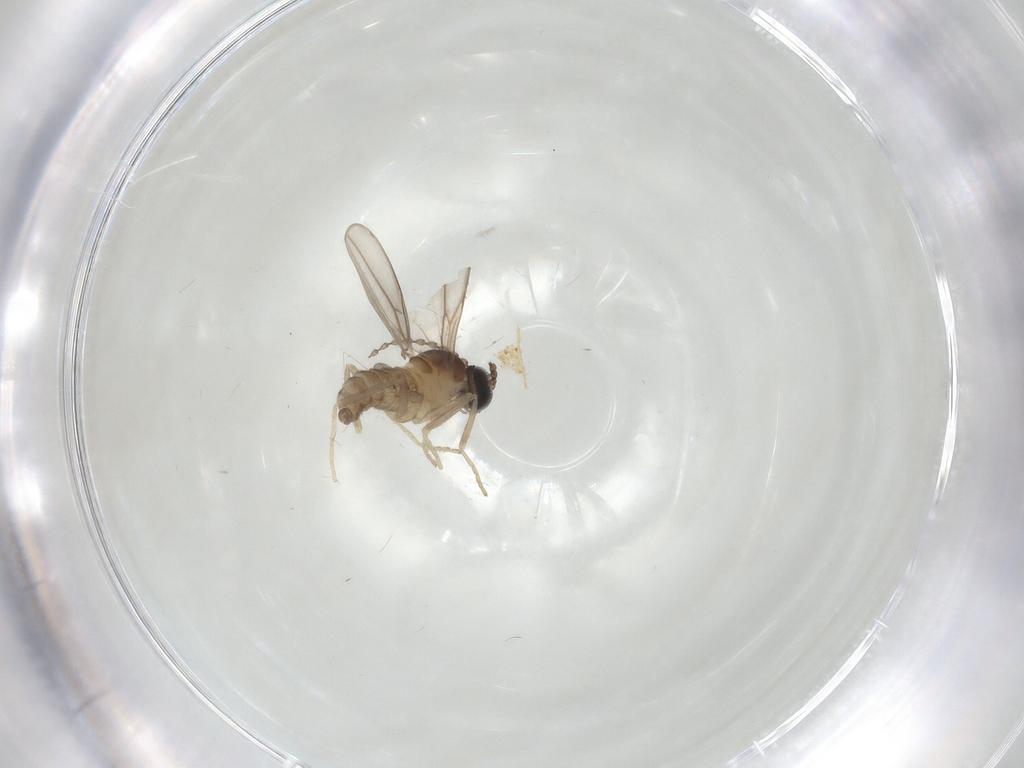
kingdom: Animalia
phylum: Arthropoda
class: Insecta
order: Diptera
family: Cecidomyiidae
